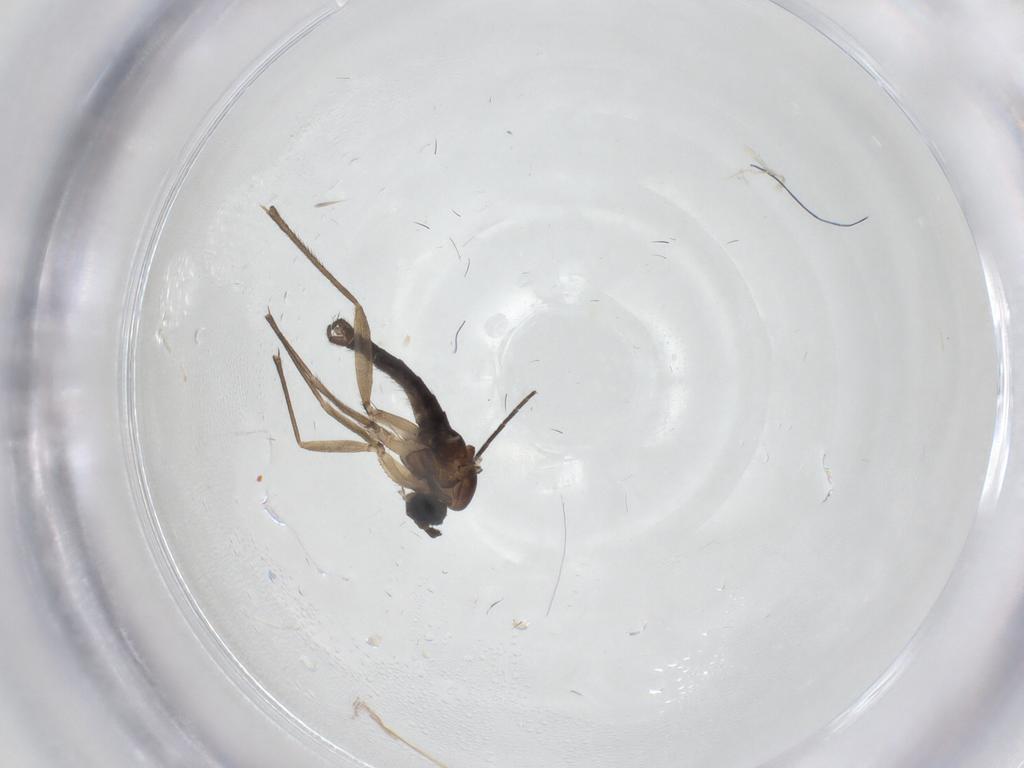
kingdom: Animalia
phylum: Arthropoda
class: Insecta
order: Diptera
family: Sciaridae
